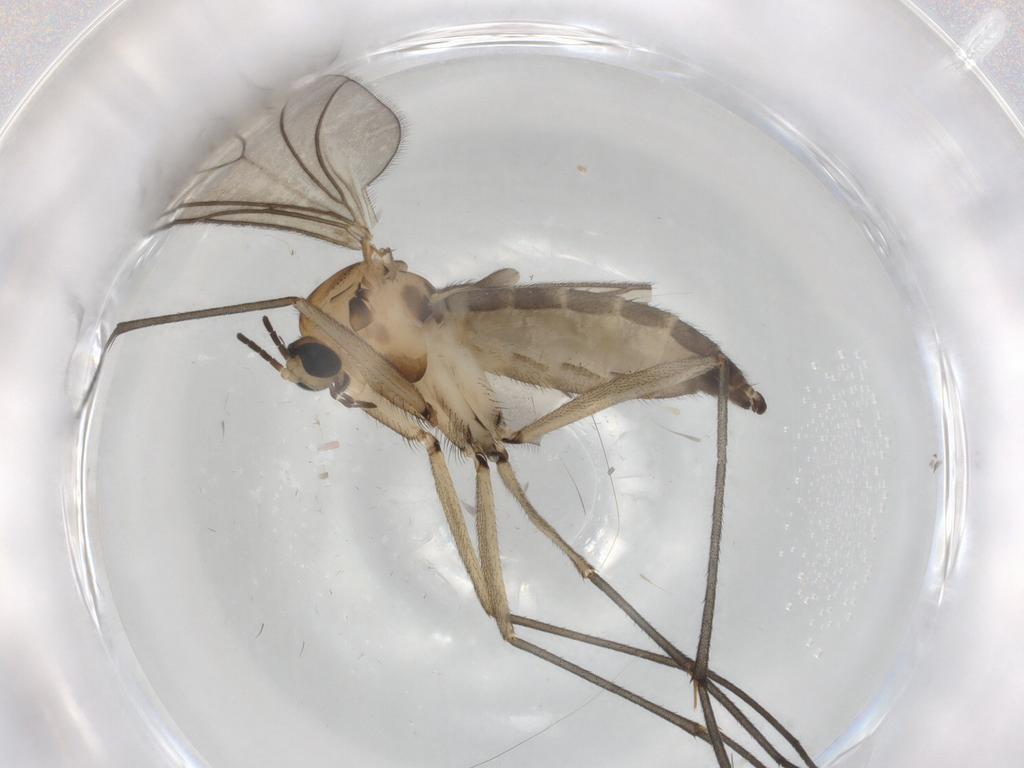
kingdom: Animalia
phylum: Arthropoda
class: Insecta
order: Diptera
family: Sciaridae
